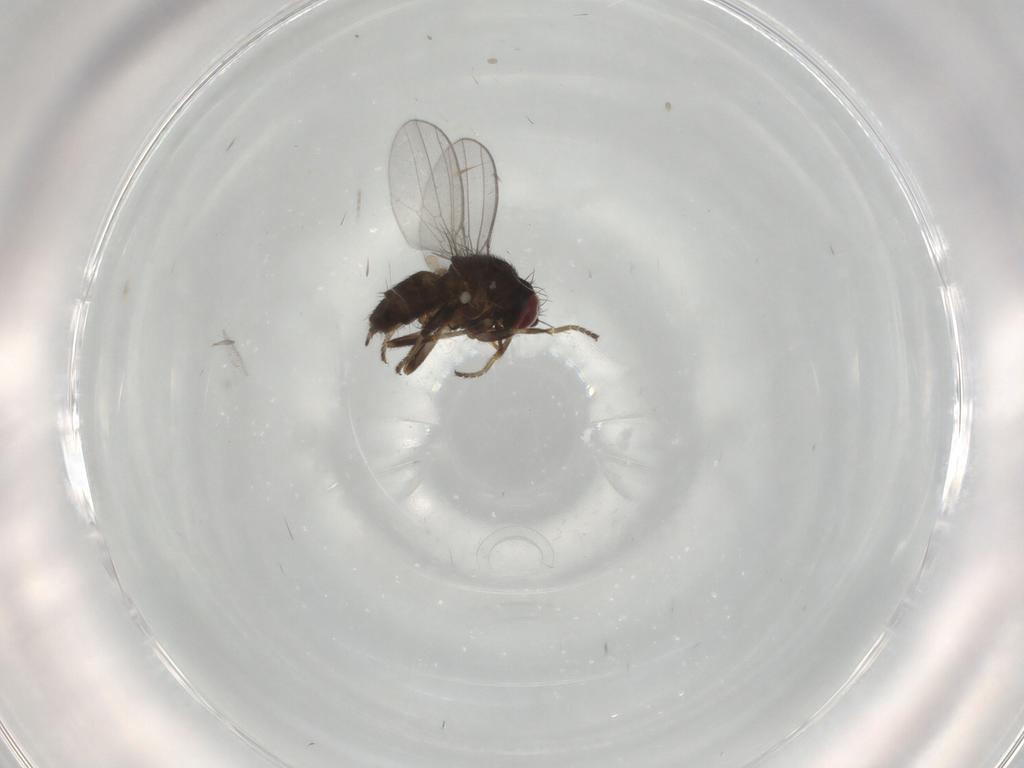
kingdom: Animalia
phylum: Arthropoda
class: Insecta
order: Diptera
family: Milichiidae
